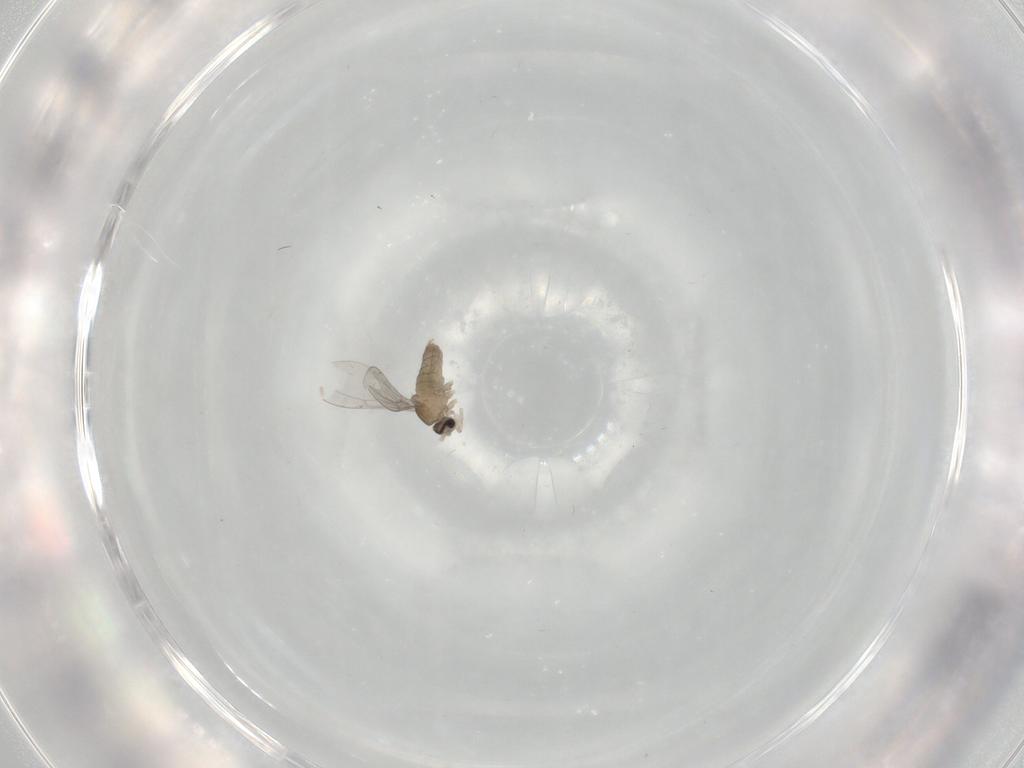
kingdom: Animalia
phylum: Arthropoda
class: Insecta
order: Diptera
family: Cecidomyiidae
